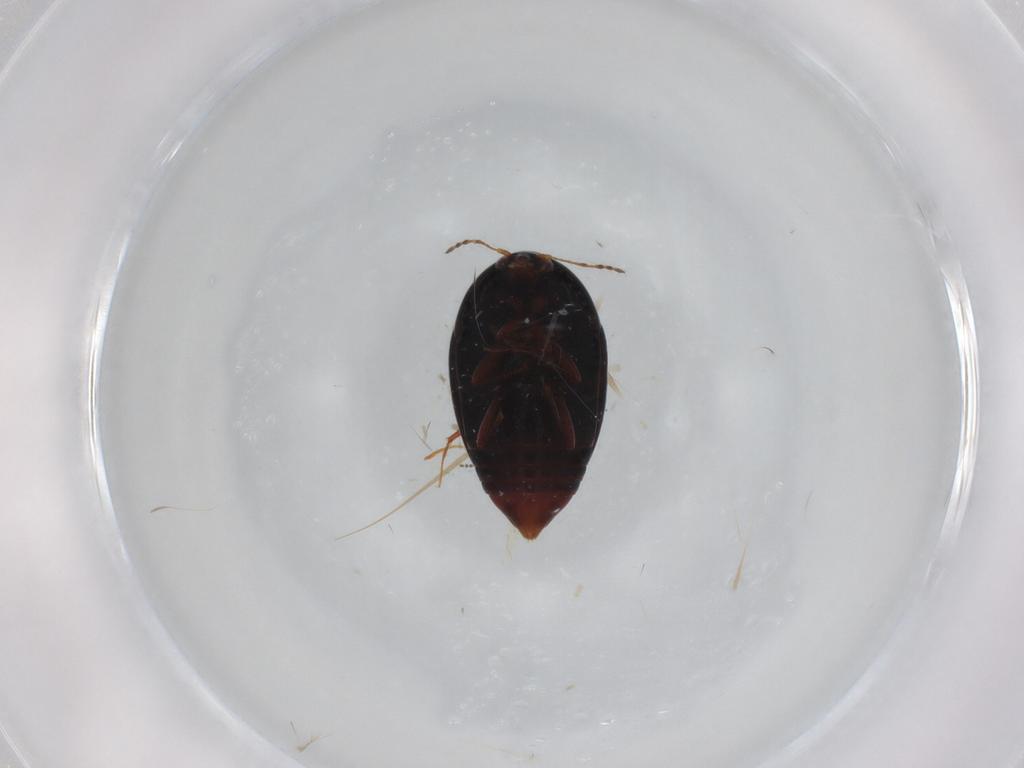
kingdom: Animalia
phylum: Arthropoda
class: Insecta
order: Coleoptera
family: Staphylinidae
